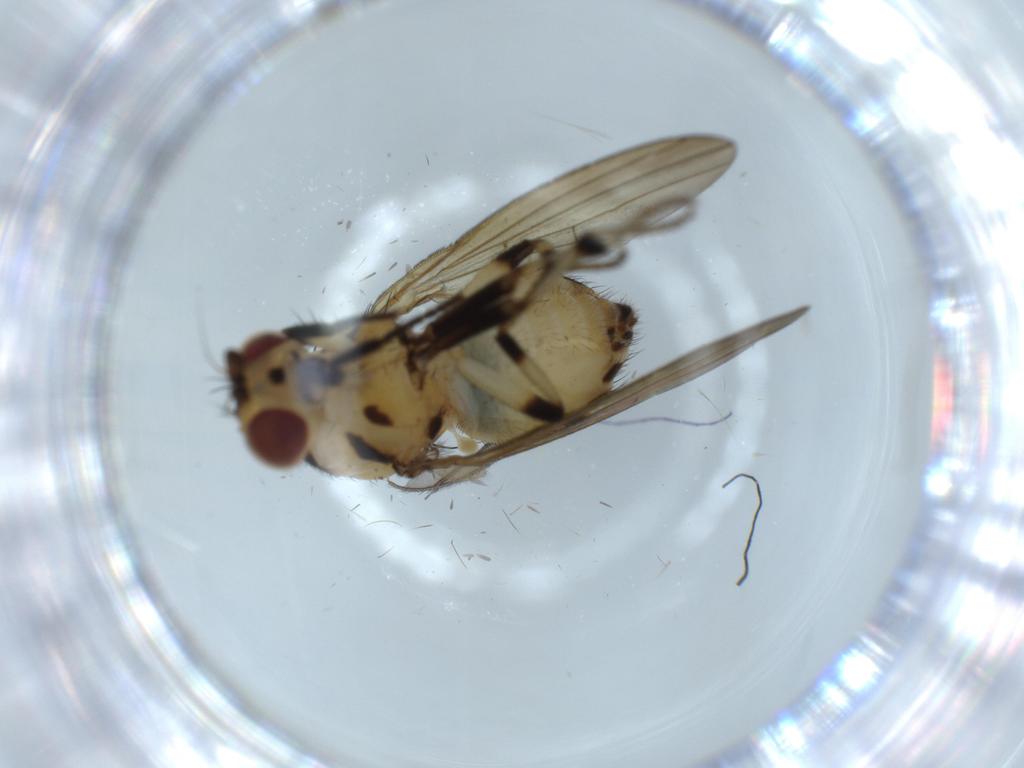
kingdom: Animalia
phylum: Arthropoda
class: Insecta
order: Diptera
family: Lauxaniidae
